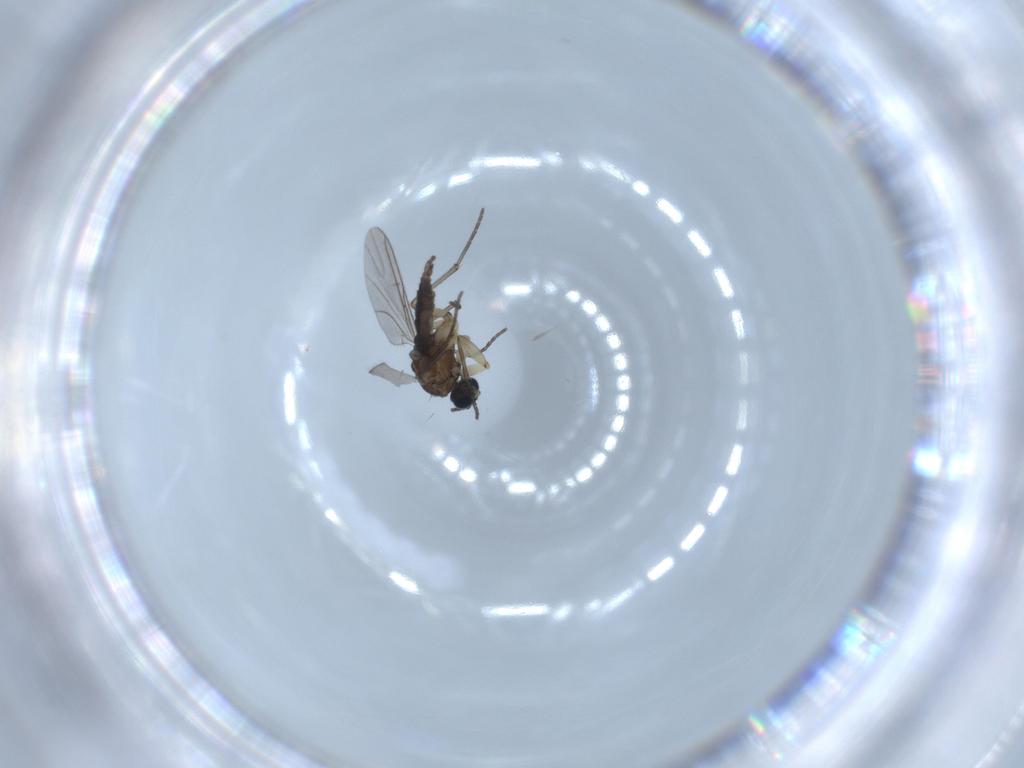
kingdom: Animalia
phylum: Arthropoda
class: Insecta
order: Diptera
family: Sciaridae
